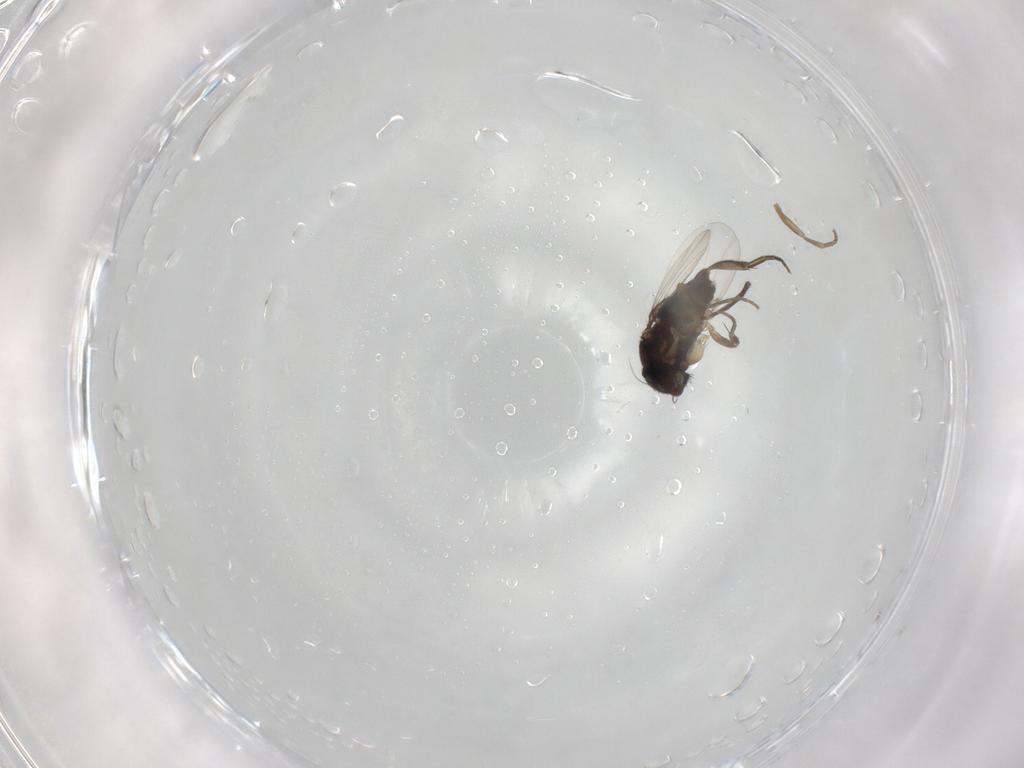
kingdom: Animalia
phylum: Arthropoda
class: Insecta
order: Diptera
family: Phoridae
